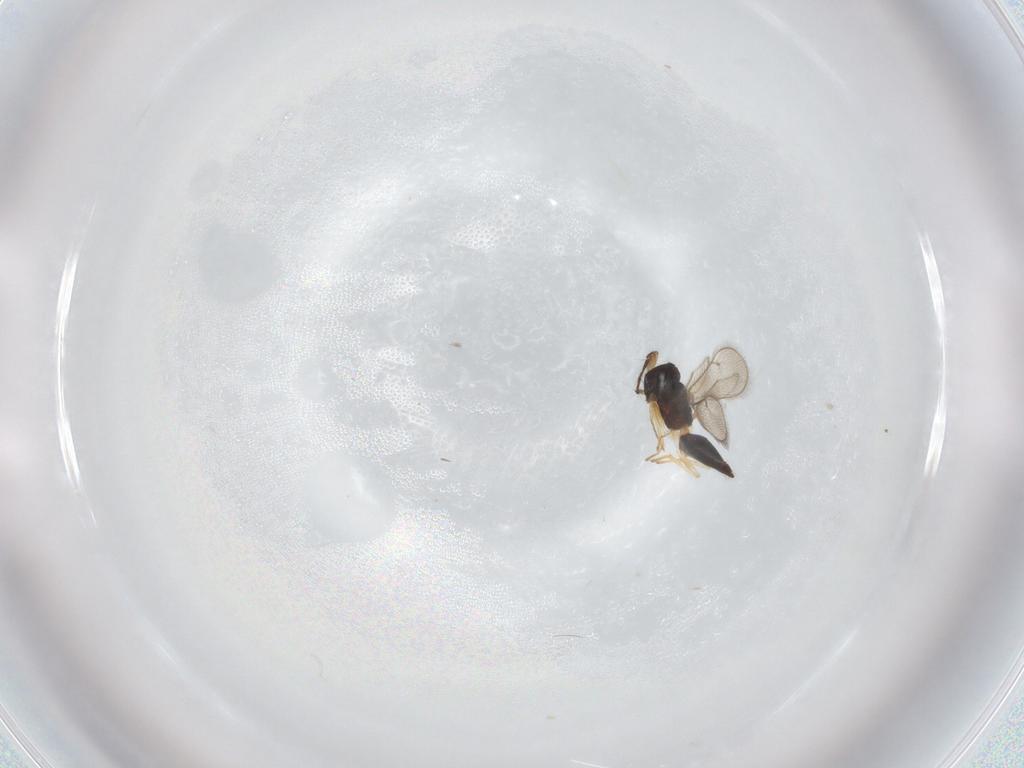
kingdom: Animalia
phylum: Arthropoda
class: Insecta
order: Hymenoptera
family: Eulophidae
